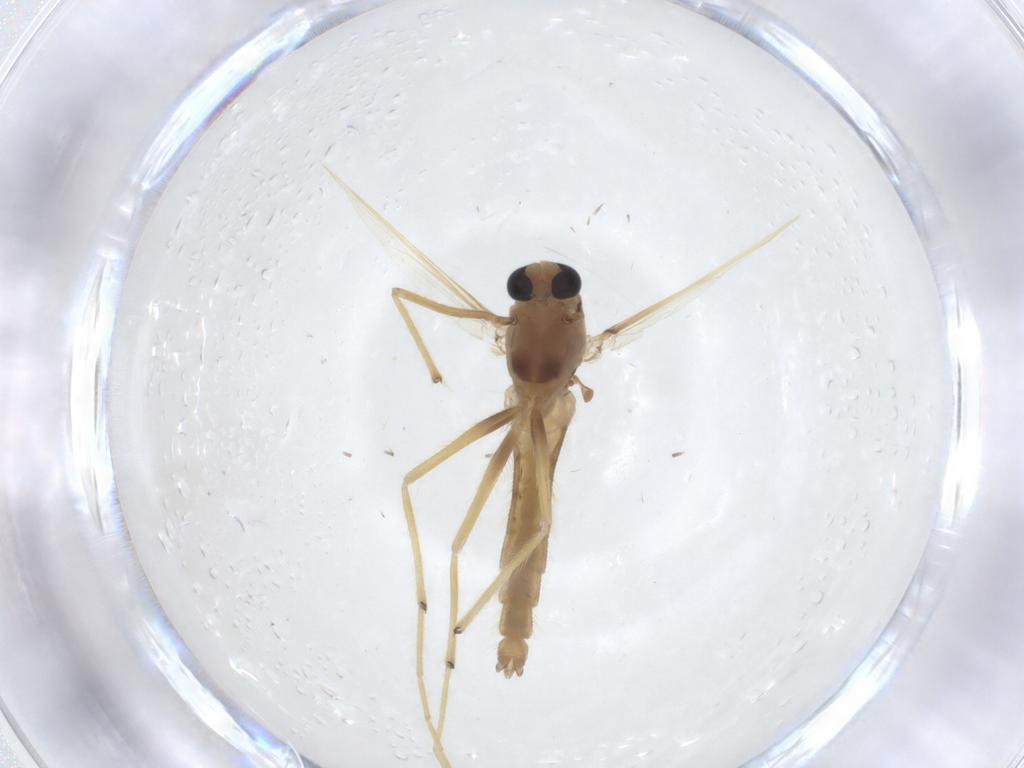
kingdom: Animalia
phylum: Arthropoda
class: Insecta
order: Diptera
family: Chironomidae
